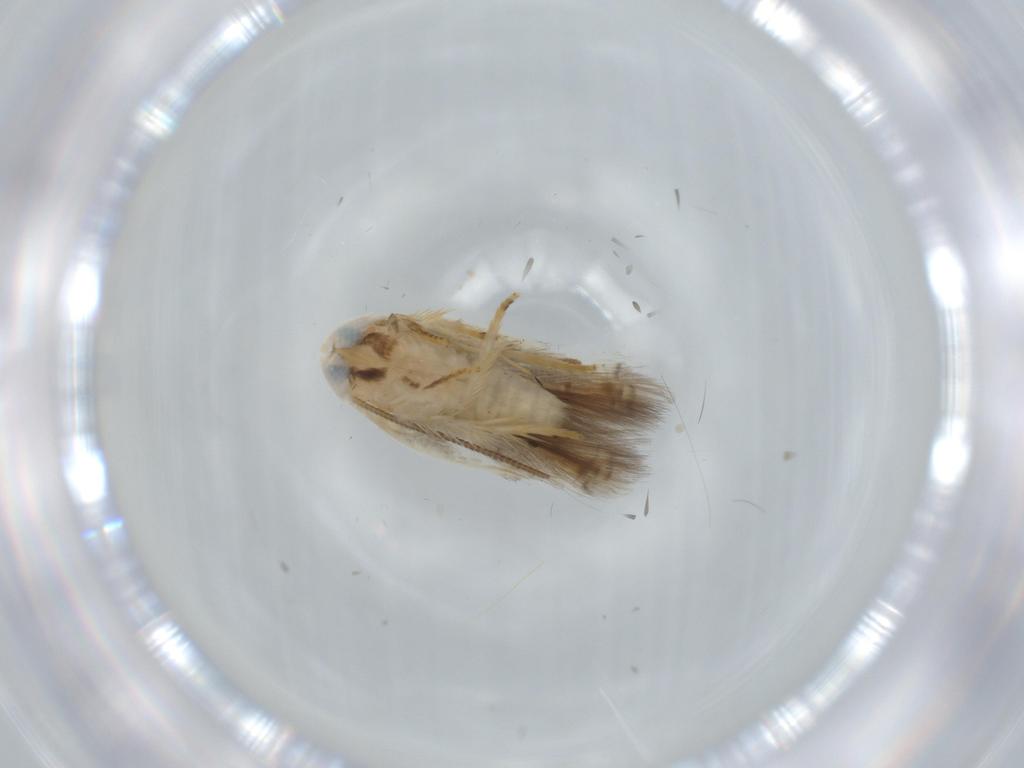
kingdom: Animalia
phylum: Arthropoda
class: Insecta
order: Lepidoptera
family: Opostegidae
